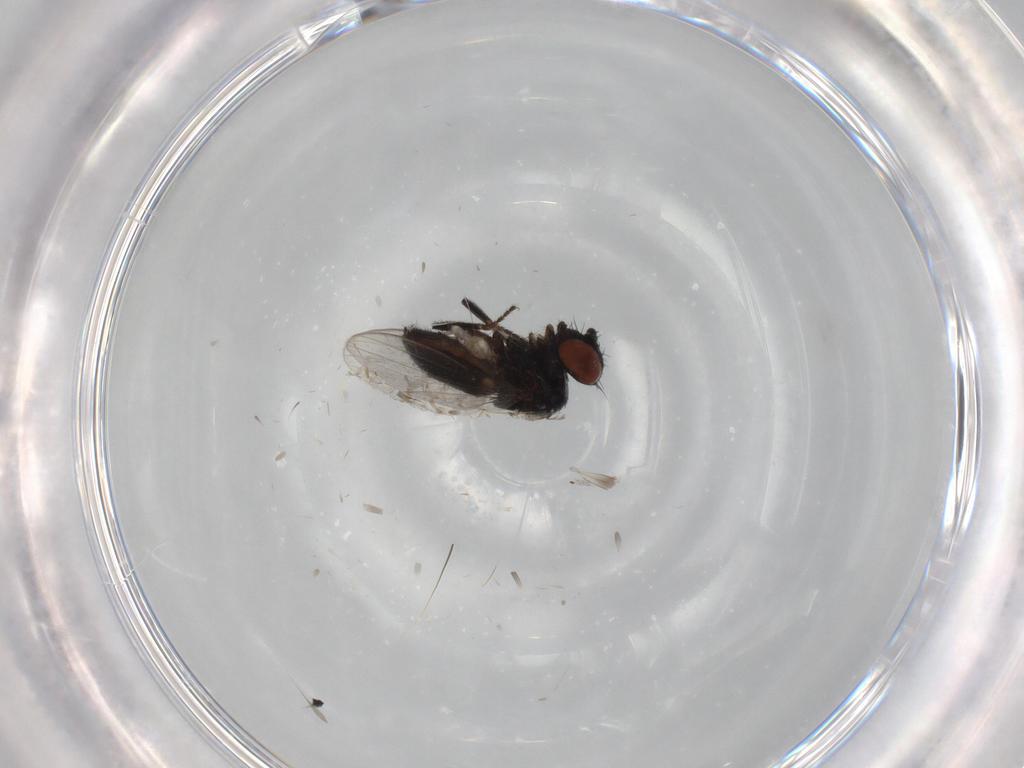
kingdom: Animalia
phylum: Arthropoda
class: Insecta
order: Diptera
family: Milichiidae
